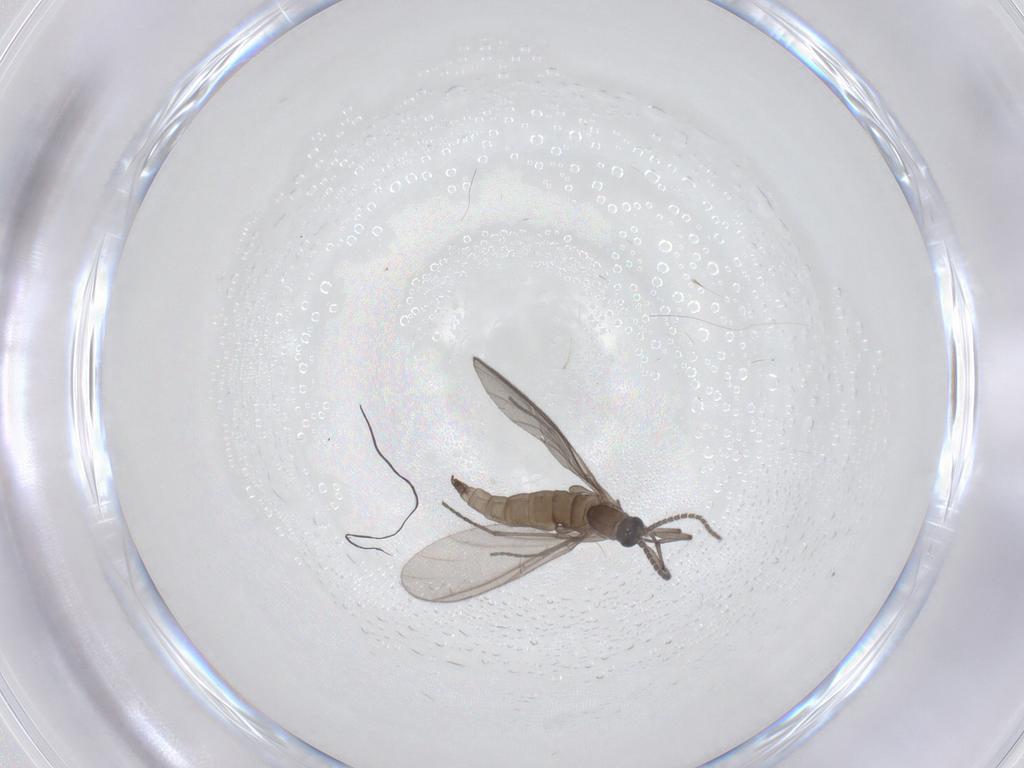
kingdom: Animalia
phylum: Arthropoda
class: Insecta
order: Diptera
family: Sciaridae
